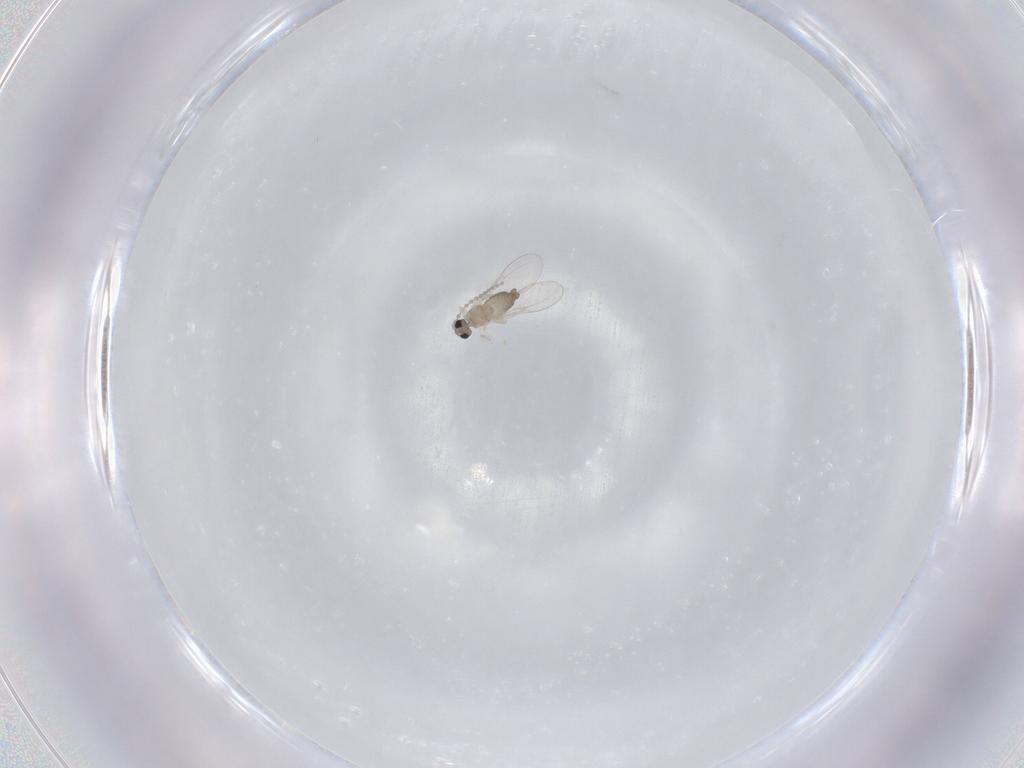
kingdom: Animalia
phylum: Arthropoda
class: Insecta
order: Diptera
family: Cecidomyiidae
